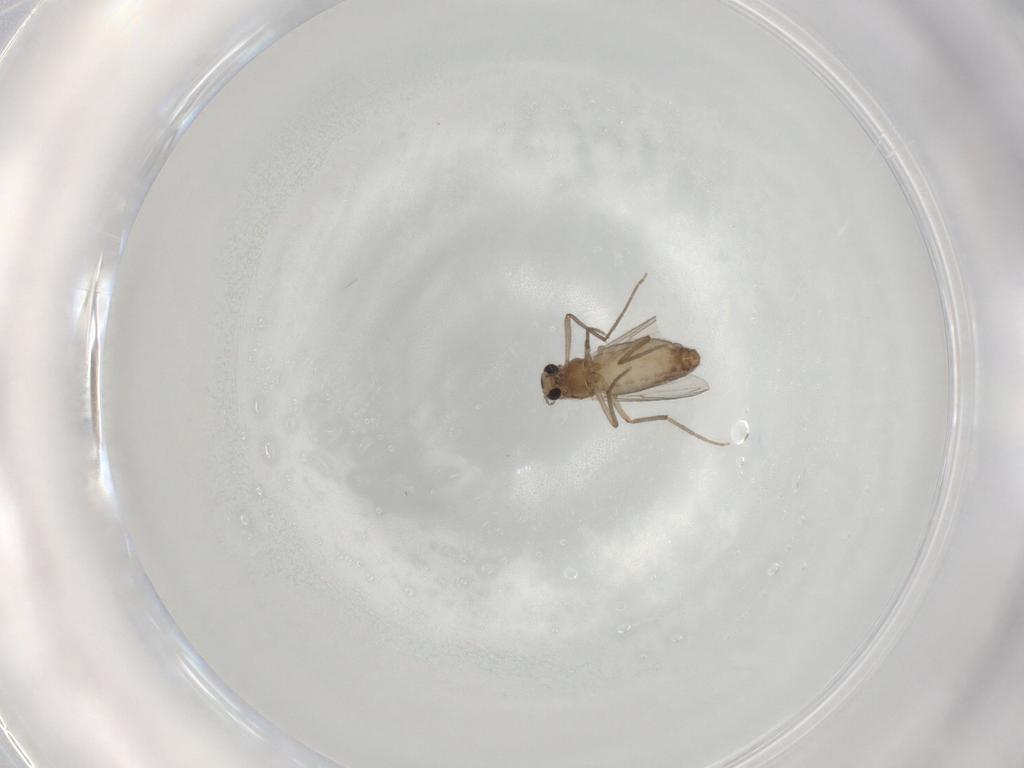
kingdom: Animalia
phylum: Arthropoda
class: Insecta
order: Diptera
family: Chironomidae
